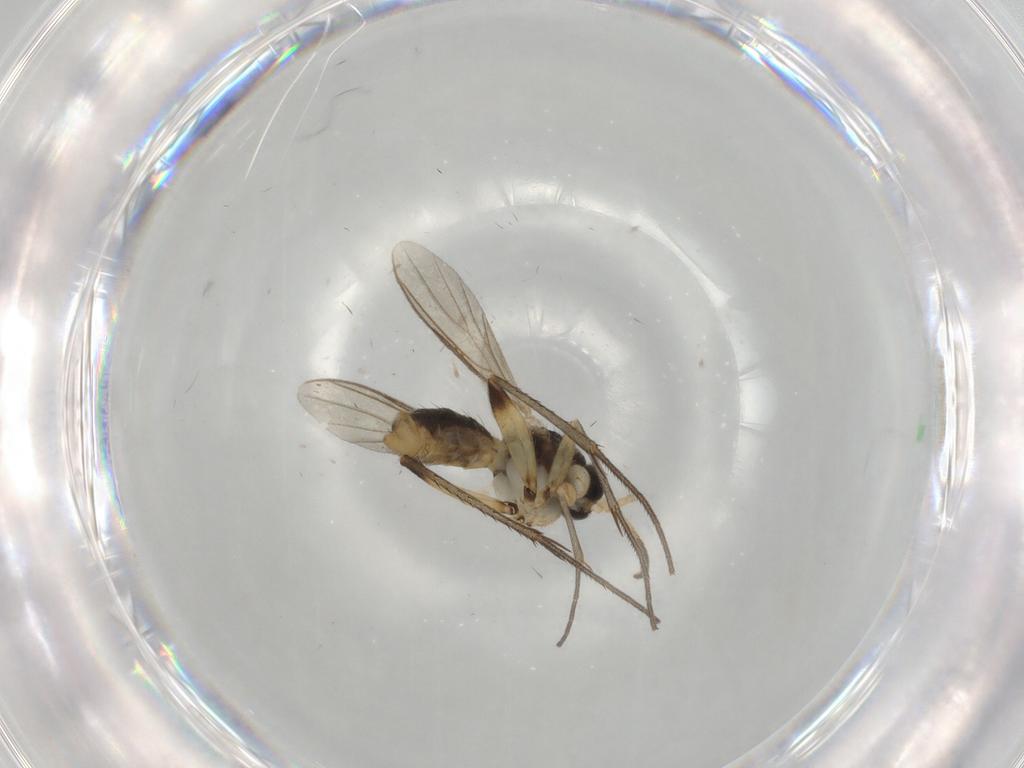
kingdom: Animalia
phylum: Arthropoda
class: Insecta
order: Diptera
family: Mycetophilidae
